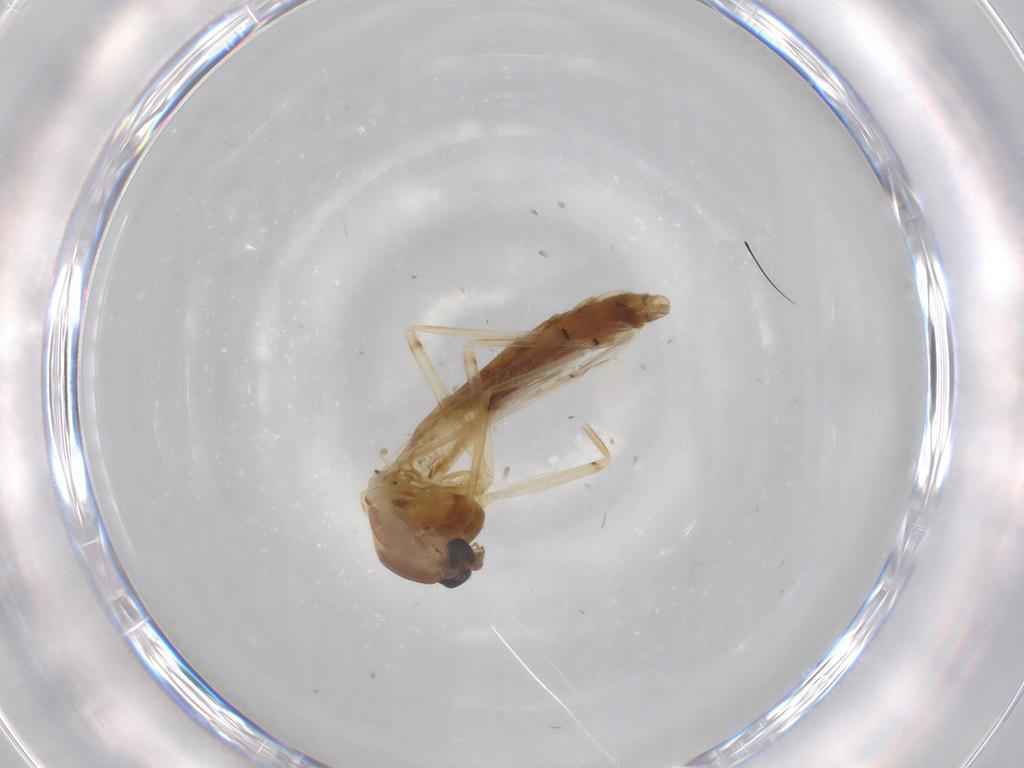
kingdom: Animalia
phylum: Arthropoda
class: Insecta
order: Diptera
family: Chironomidae
